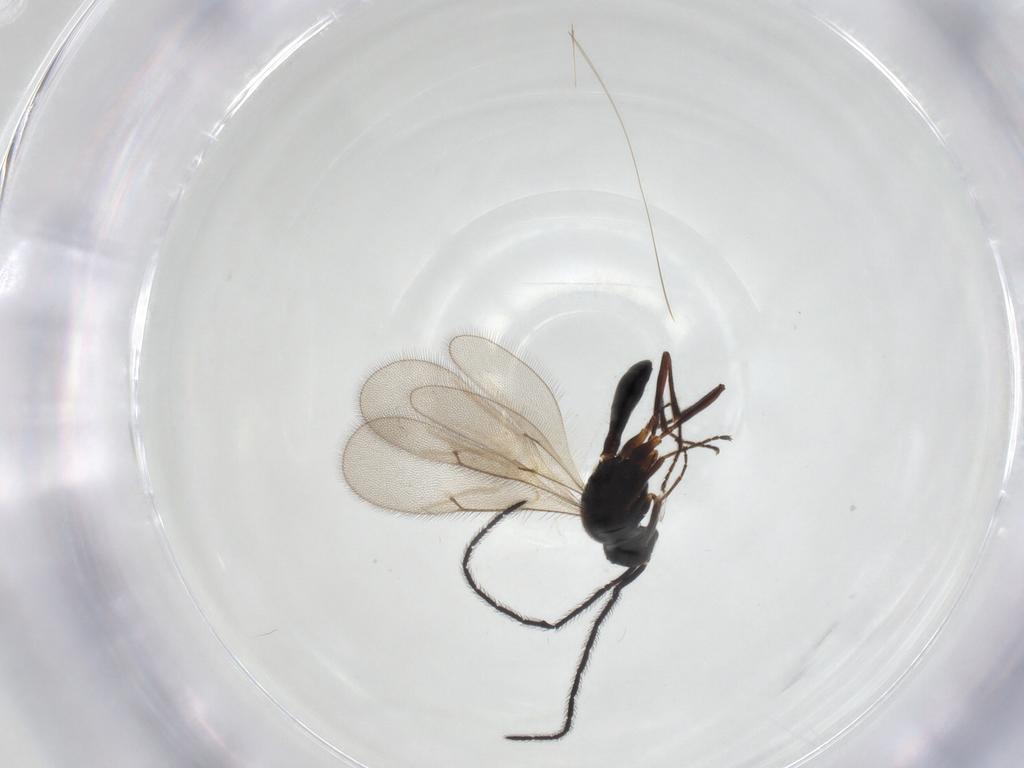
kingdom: Animalia
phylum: Arthropoda
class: Insecta
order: Hymenoptera
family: Scelionidae
